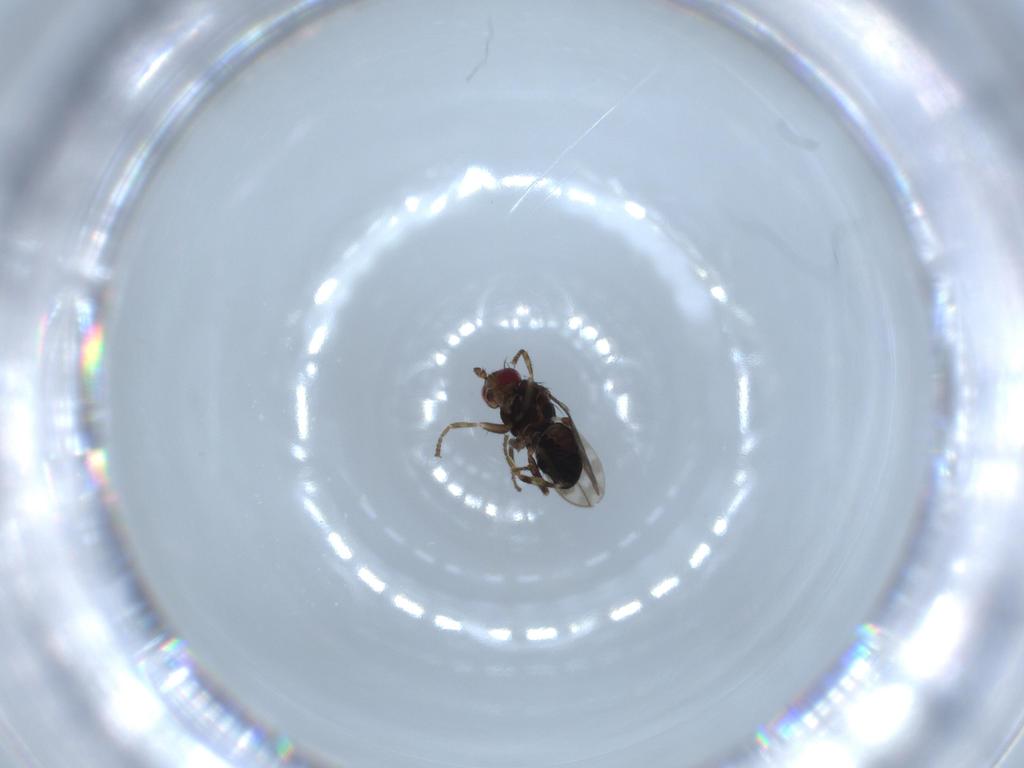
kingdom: Animalia
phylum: Arthropoda
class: Insecta
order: Diptera
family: Sphaeroceridae
